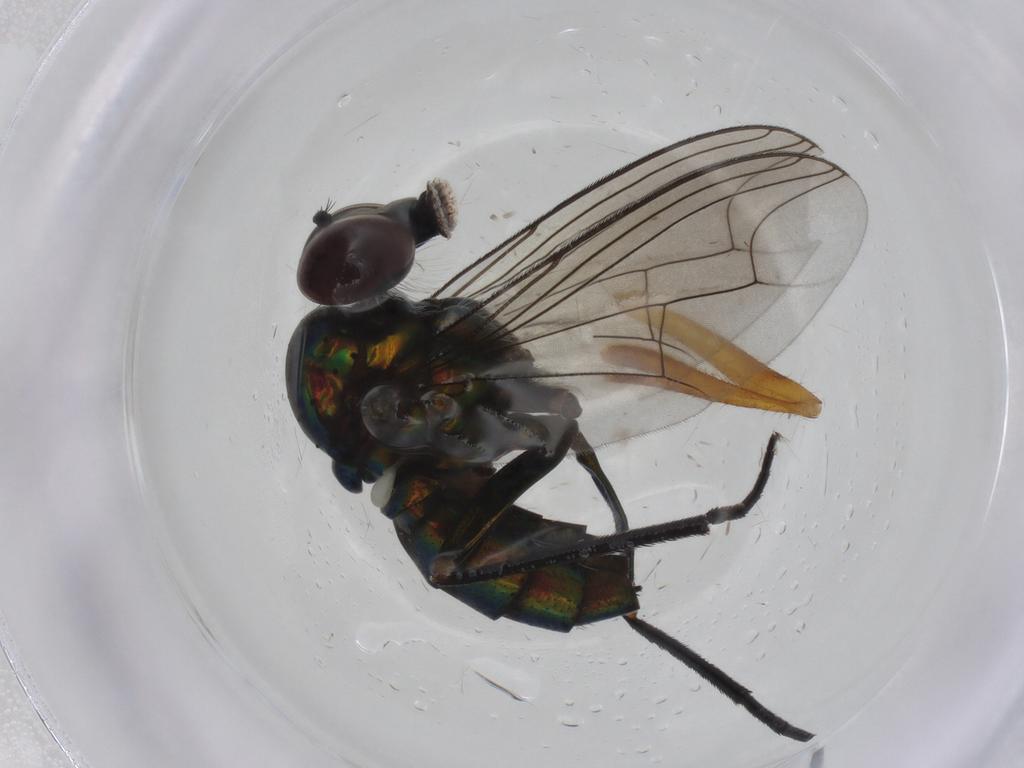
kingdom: Animalia
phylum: Arthropoda
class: Insecta
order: Diptera
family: Dolichopodidae
